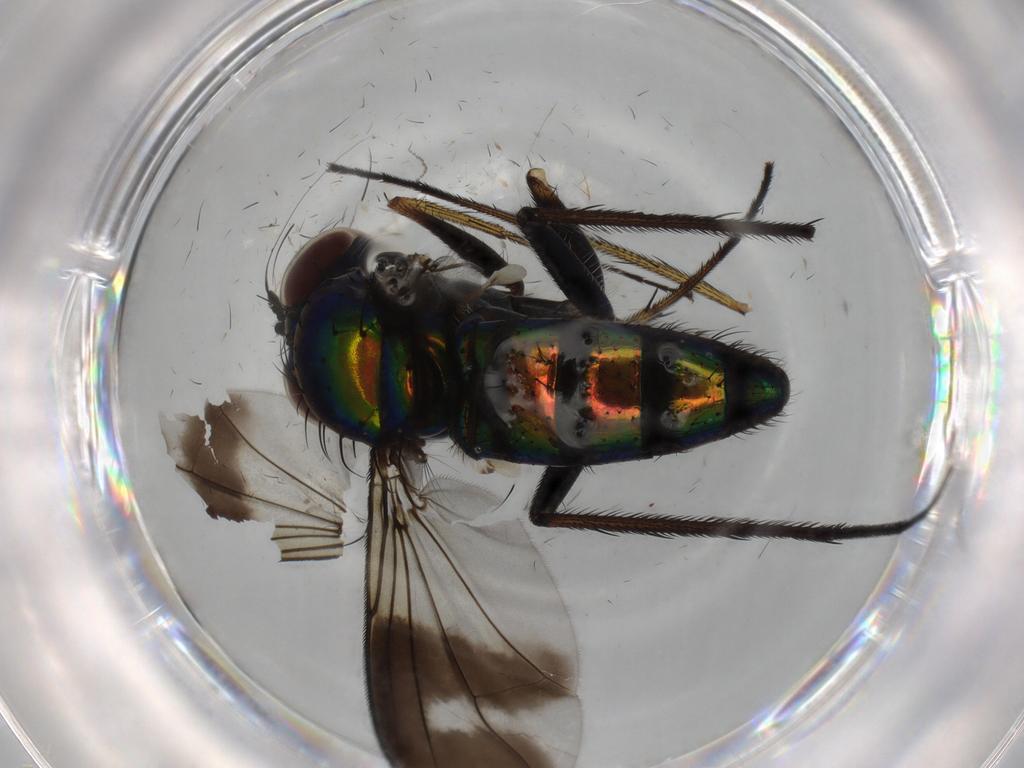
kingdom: Animalia
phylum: Arthropoda
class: Insecta
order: Diptera
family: Dolichopodidae
